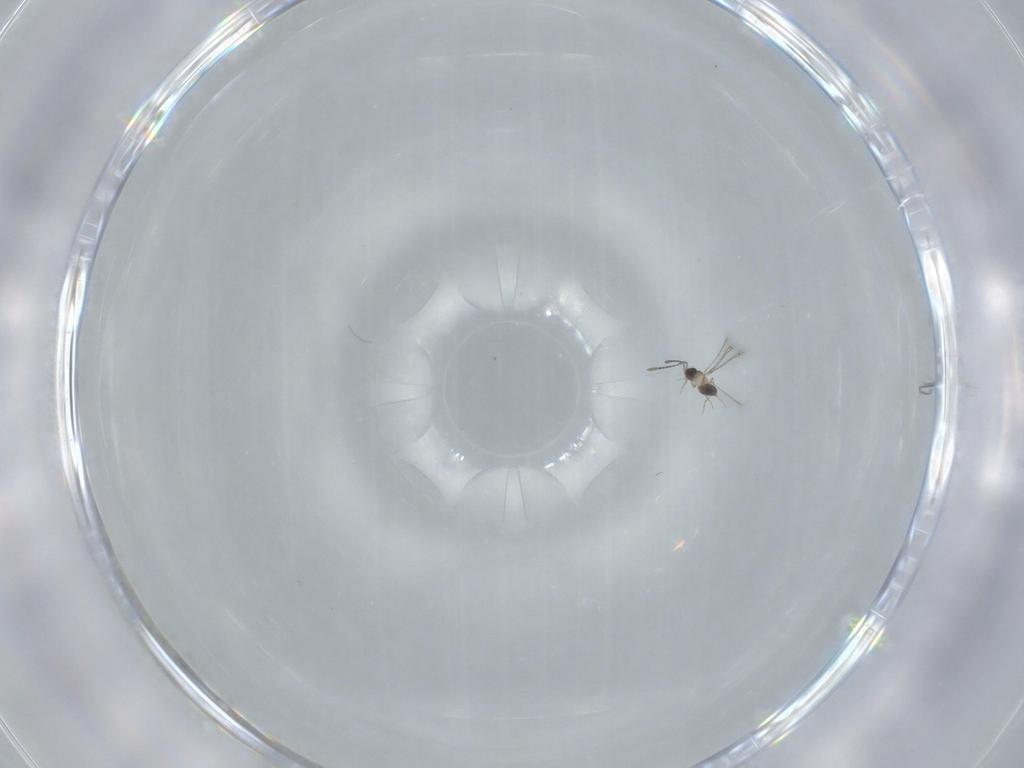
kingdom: Animalia
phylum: Arthropoda
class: Insecta
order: Hymenoptera
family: Mymaridae
